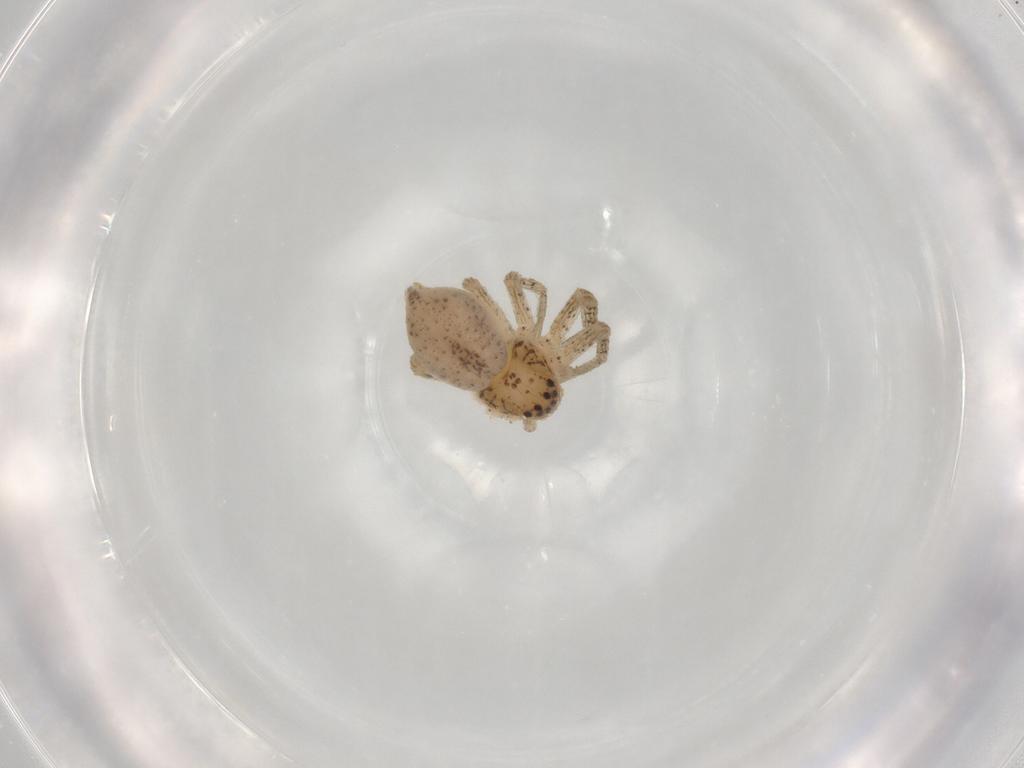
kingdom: Animalia
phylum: Arthropoda
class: Arachnida
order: Araneae
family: Philodromidae
